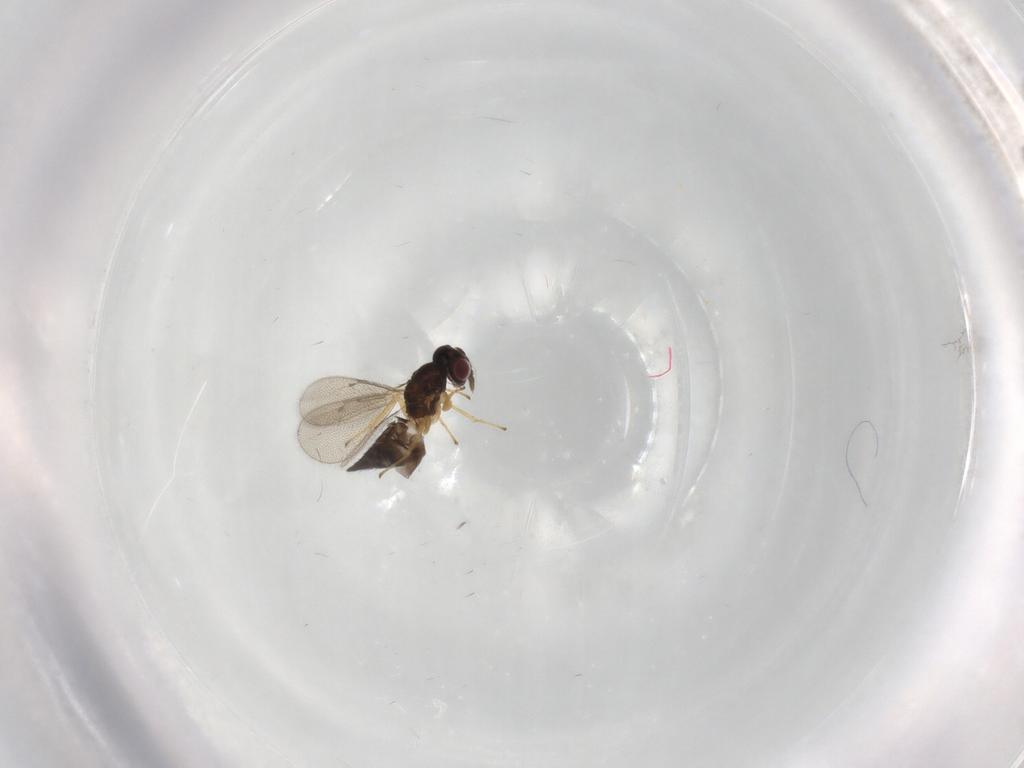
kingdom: Animalia
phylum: Arthropoda
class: Insecta
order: Hymenoptera
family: Eulophidae
